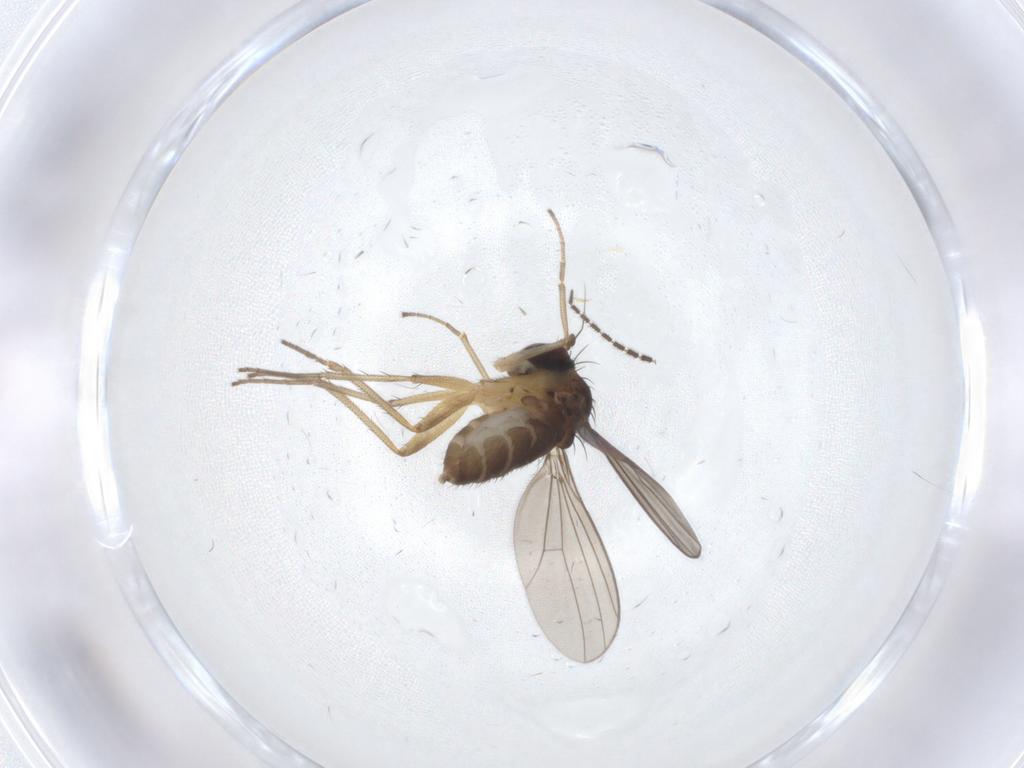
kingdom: Animalia
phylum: Arthropoda
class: Insecta
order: Diptera
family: Dolichopodidae
